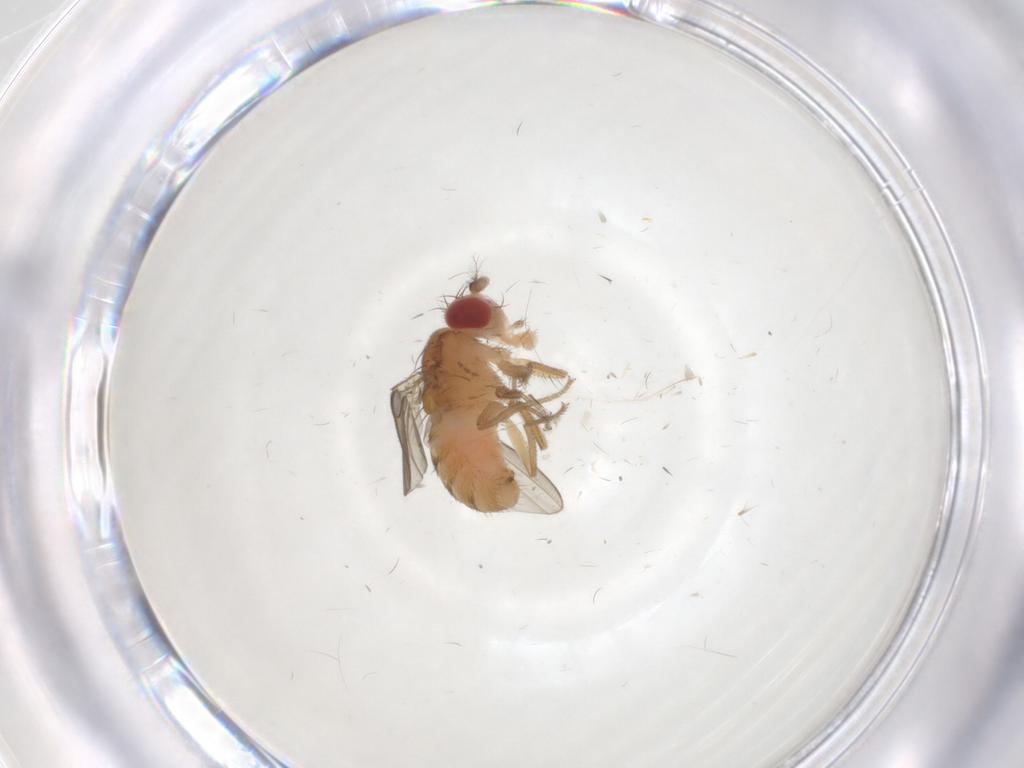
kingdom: Animalia
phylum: Arthropoda
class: Insecta
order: Diptera
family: Drosophilidae
